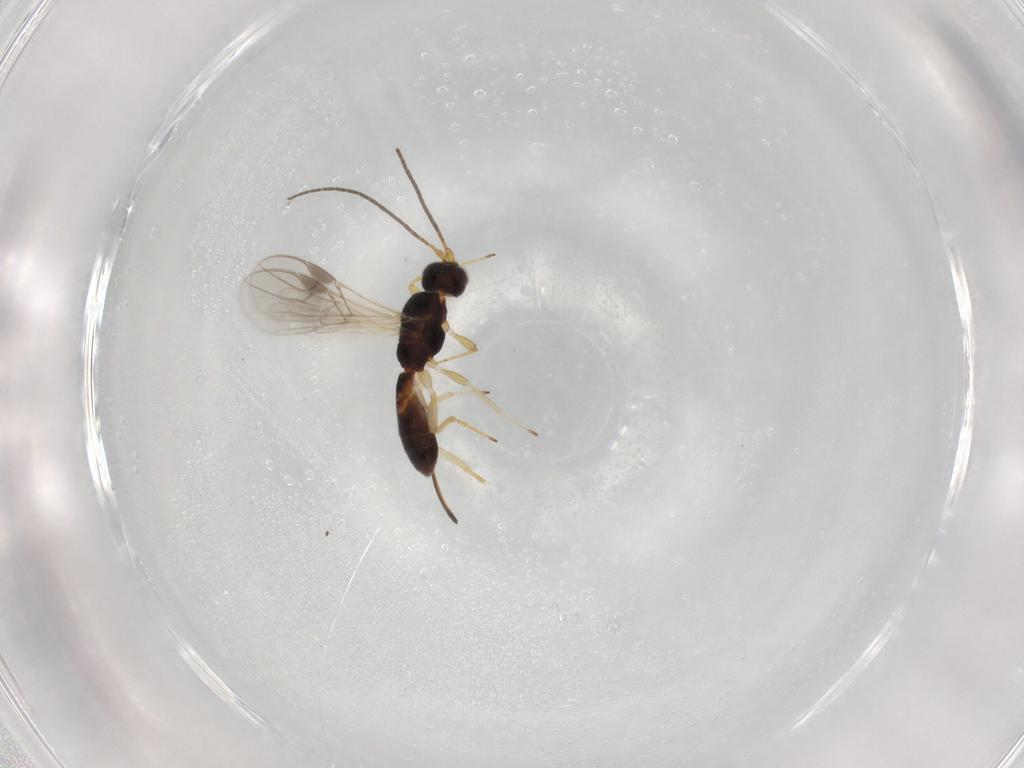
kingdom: Animalia
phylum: Arthropoda
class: Insecta
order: Hymenoptera
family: Braconidae
